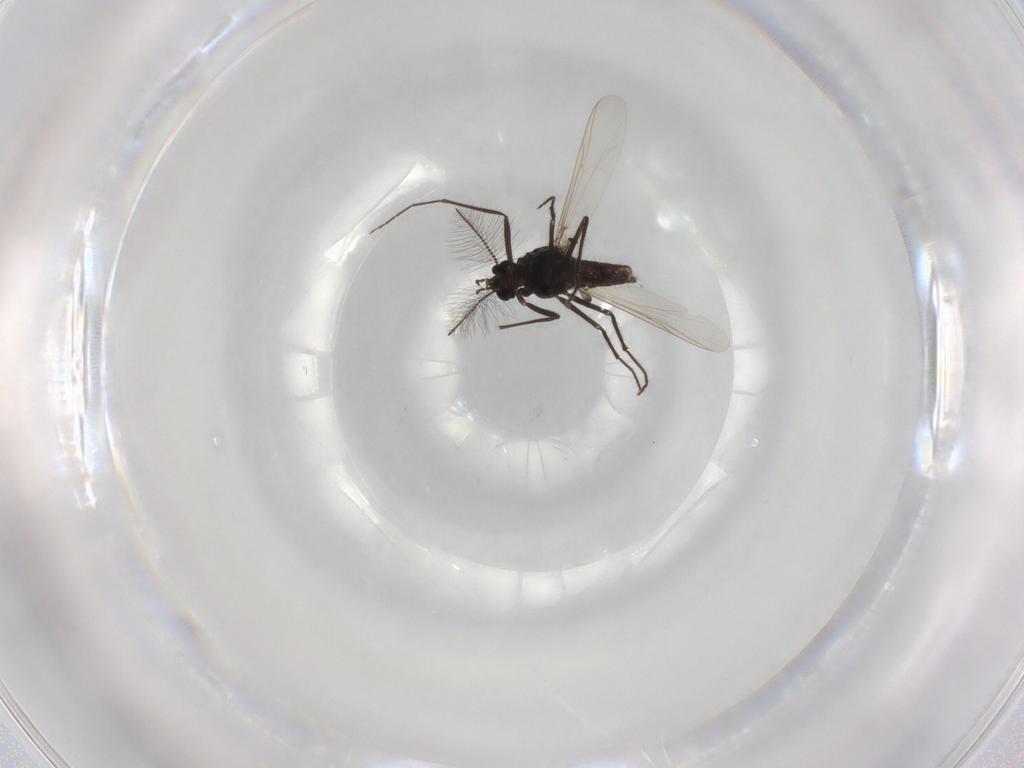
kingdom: Animalia
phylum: Arthropoda
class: Insecta
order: Diptera
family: Chironomidae
